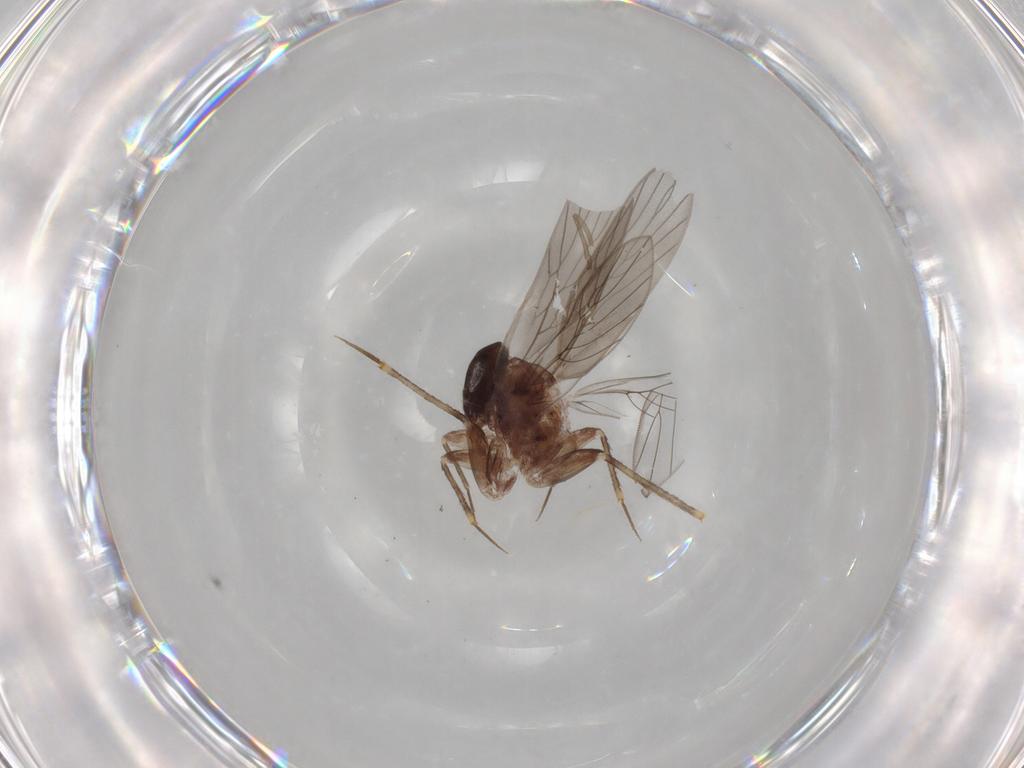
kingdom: Animalia
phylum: Arthropoda
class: Insecta
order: Psocodea
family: Lepidopsocidae
